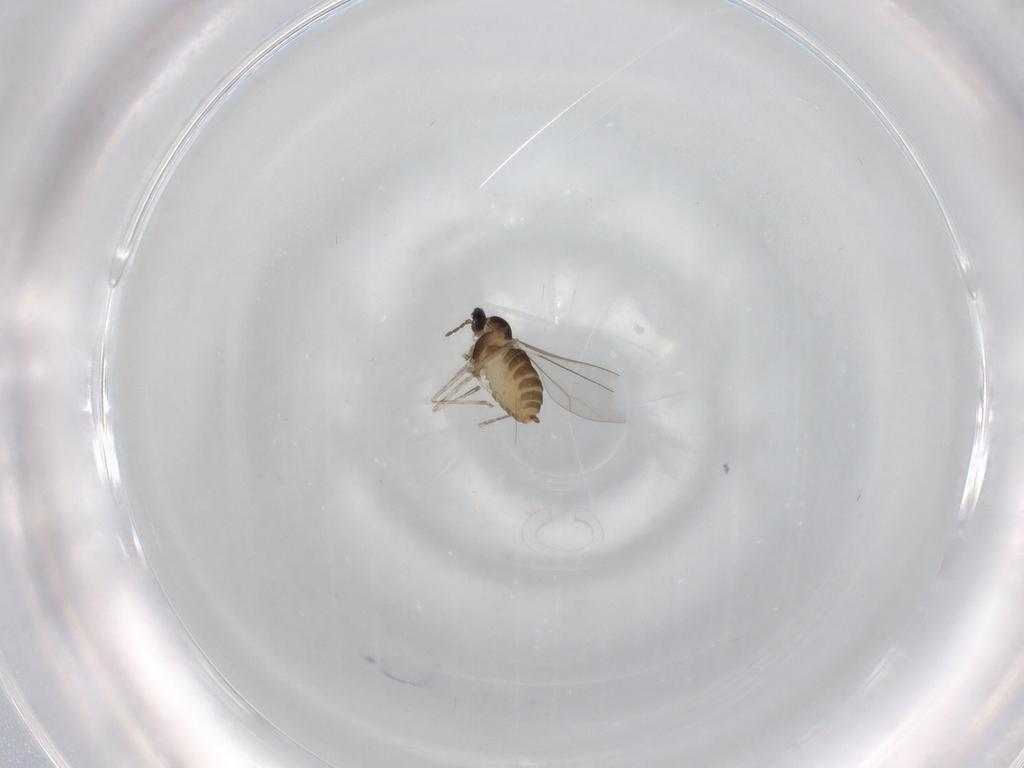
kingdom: Animalia
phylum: Arthropoda
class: Insecta
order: Diptera
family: Cecidomyiidae
